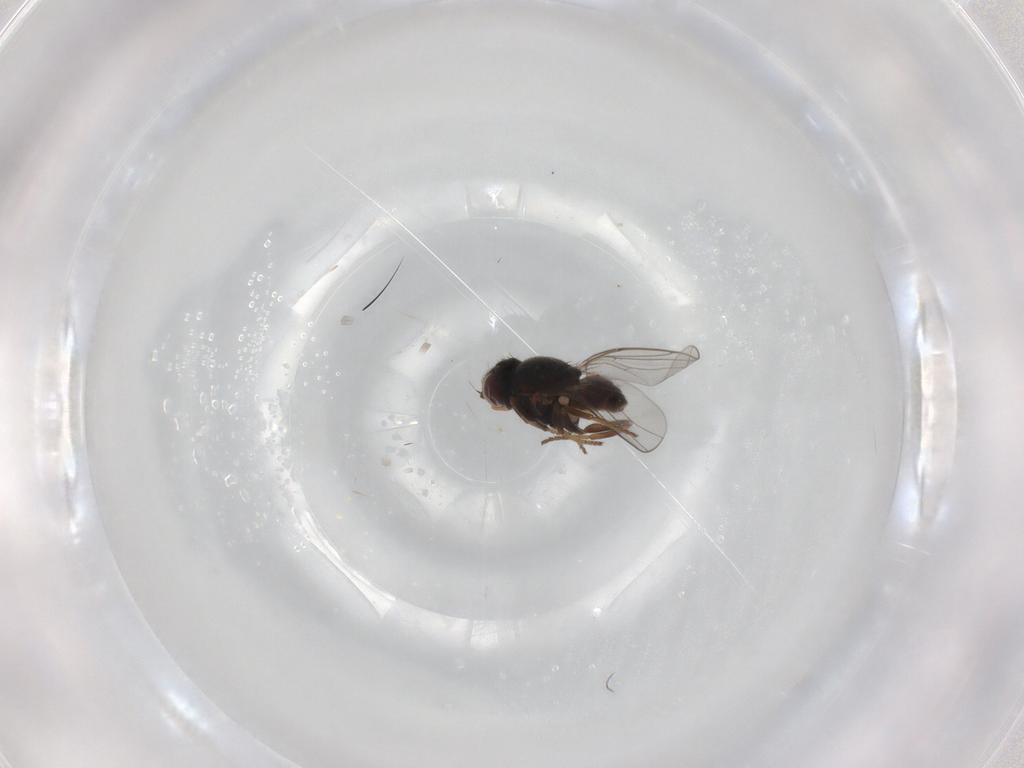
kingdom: Animalia
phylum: Arthropoda
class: Insecta
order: Diptera
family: Chloropidae
